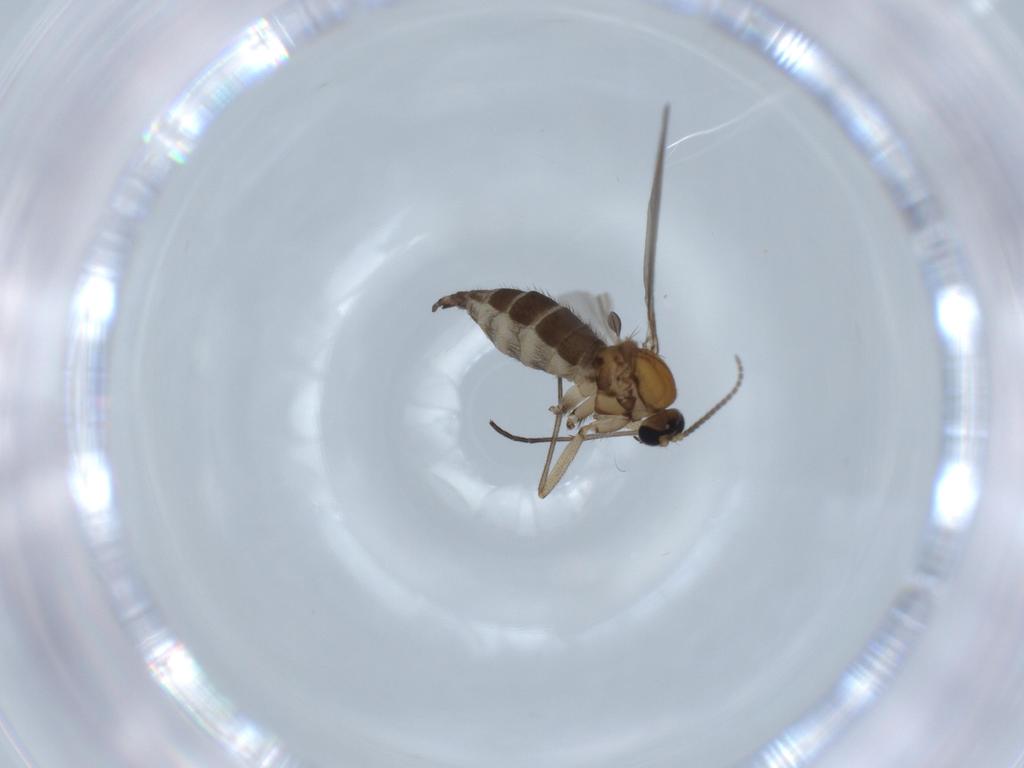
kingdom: Animalia
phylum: Arthropoda
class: Insecta
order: Diptera
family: Sciaridae
